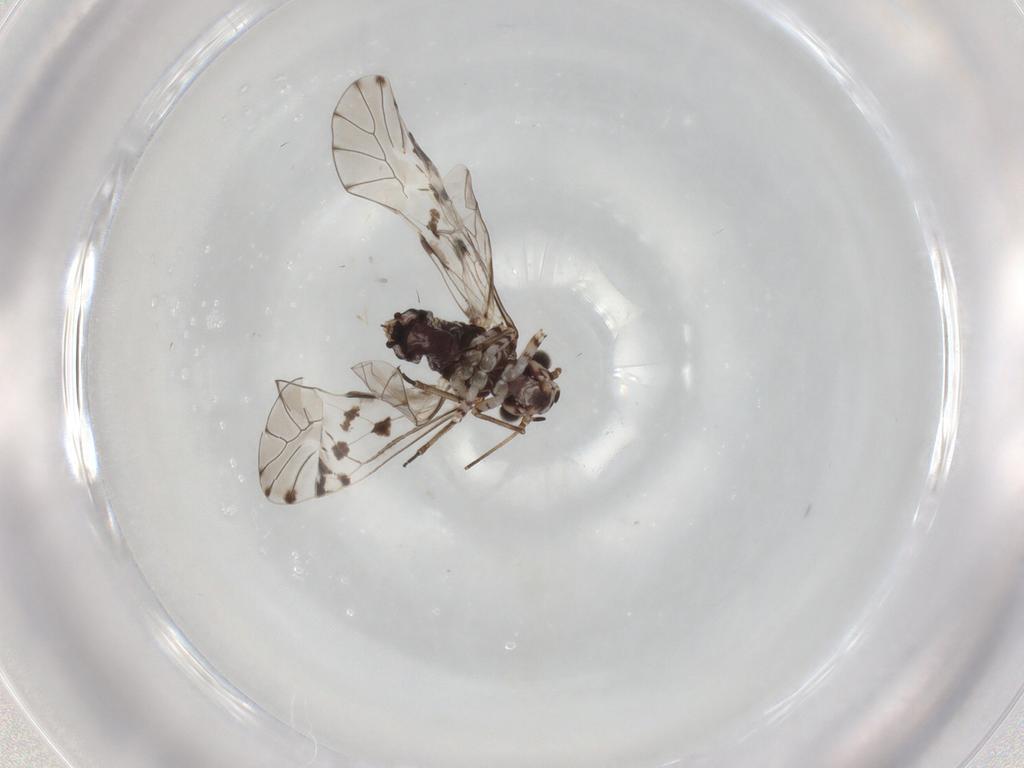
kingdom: Animalia
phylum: Arthropoda
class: Insecta
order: Psocodea
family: Myopsocidae
